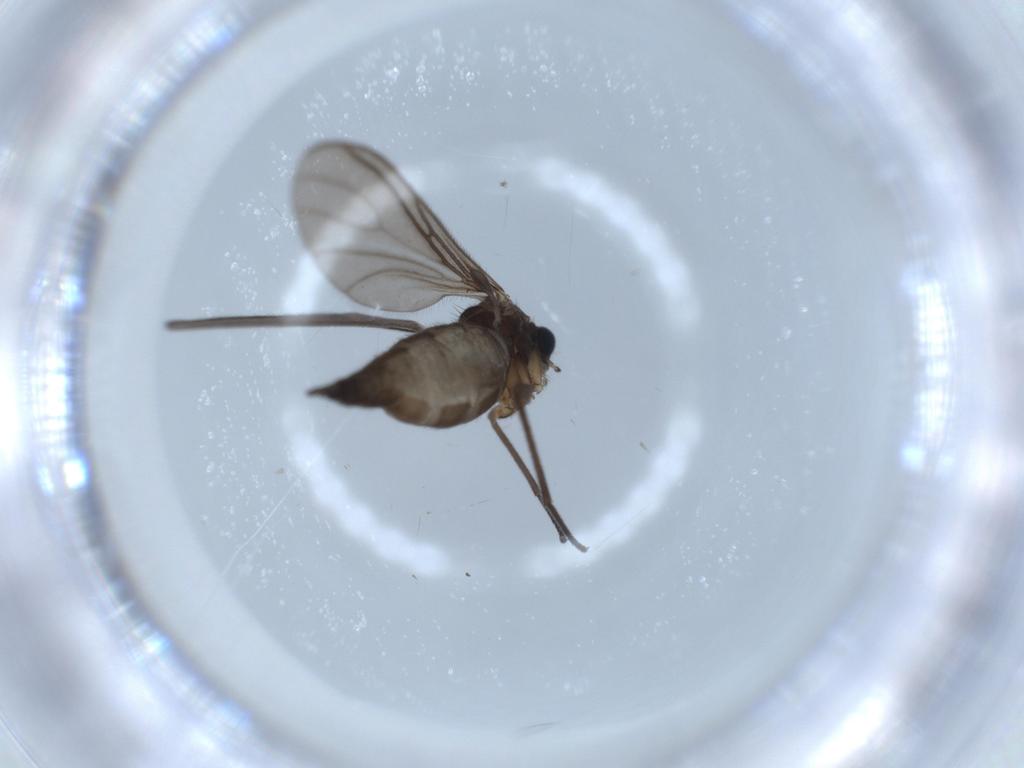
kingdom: Animalia
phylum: Arthropoda
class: Insecta
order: Diptera
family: Sciaridae
